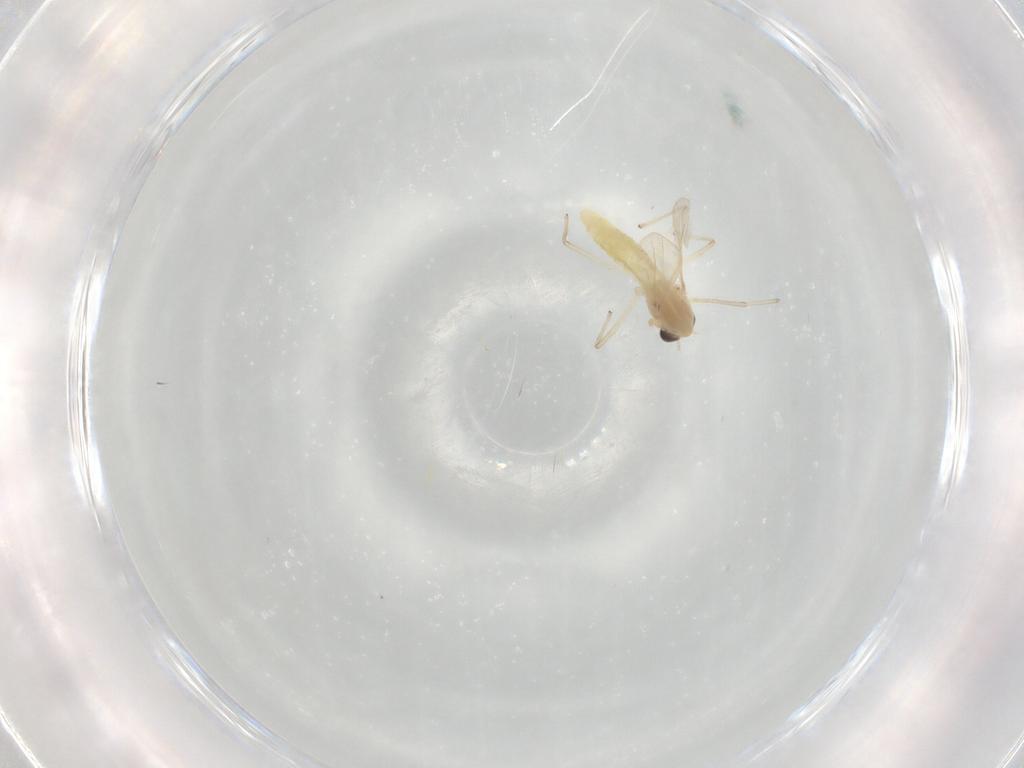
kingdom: Animalia
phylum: Arthropoda
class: Insecta
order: Diptera
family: Chironomidae
